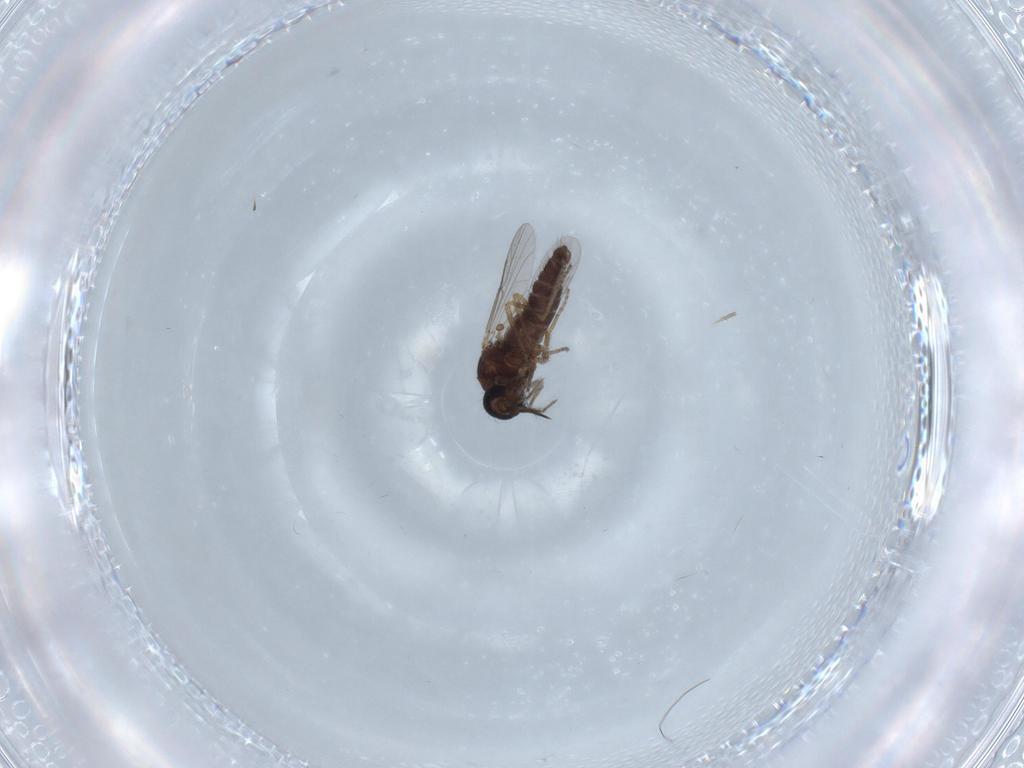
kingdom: Animalia
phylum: Arthropoda
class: Insecta
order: Diptera
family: Ceratopogonidae
